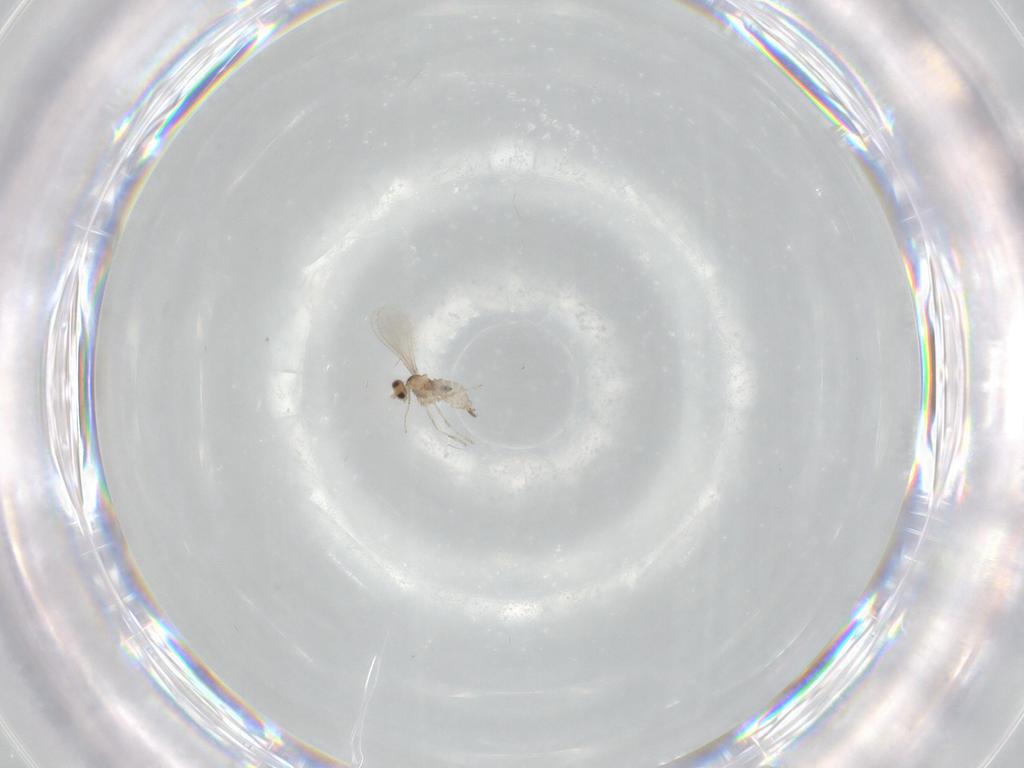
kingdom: Animalia
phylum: Arthropoda
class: Insecta
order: Diptera
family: Cecidomyiidae
